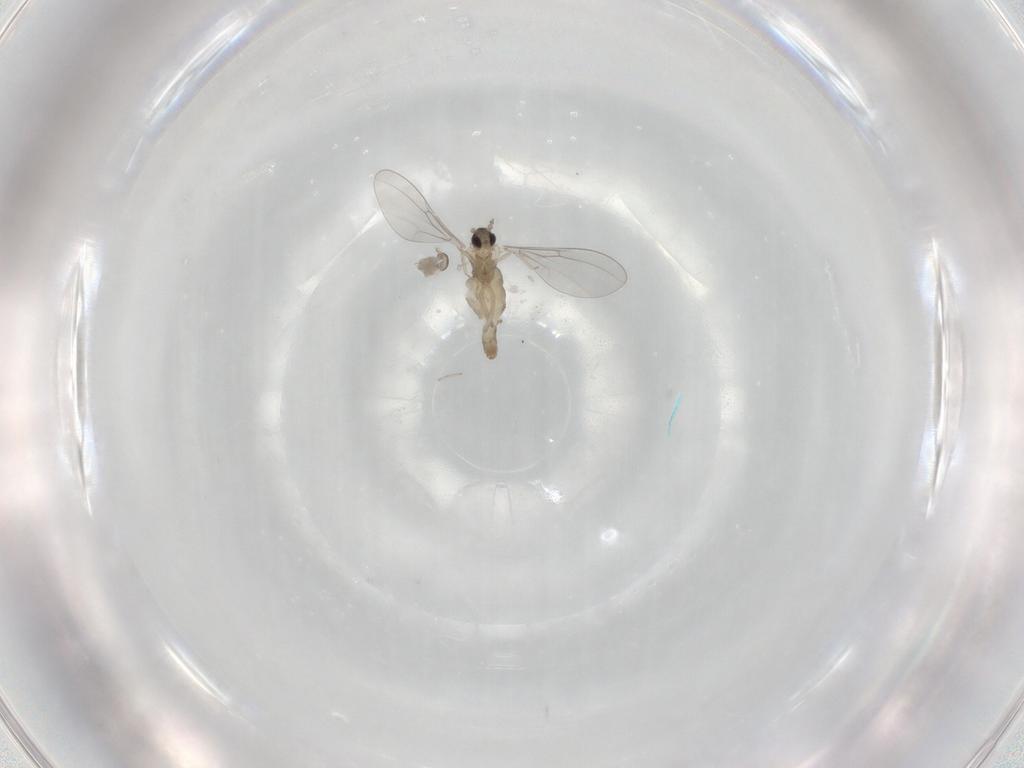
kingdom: Animalia
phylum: Arthropoda
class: Insecta
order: Diptera
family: Cecidomyiidae
